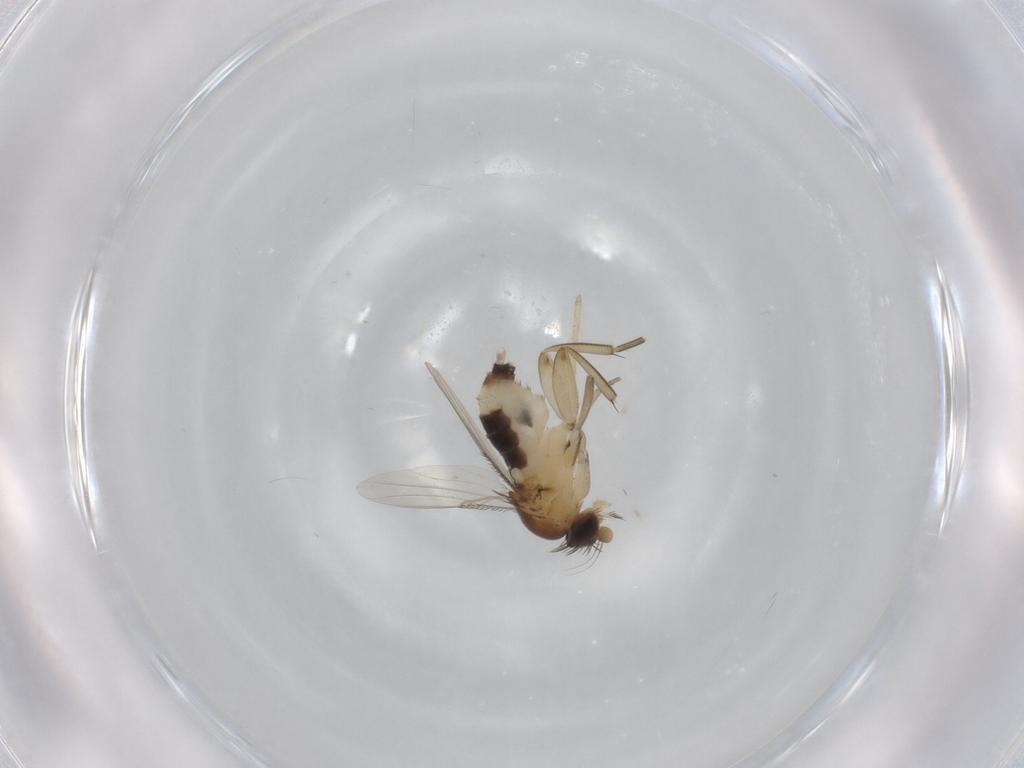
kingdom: Animalia
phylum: Arthropoda
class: Insecta
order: Diptera
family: Phoridae
